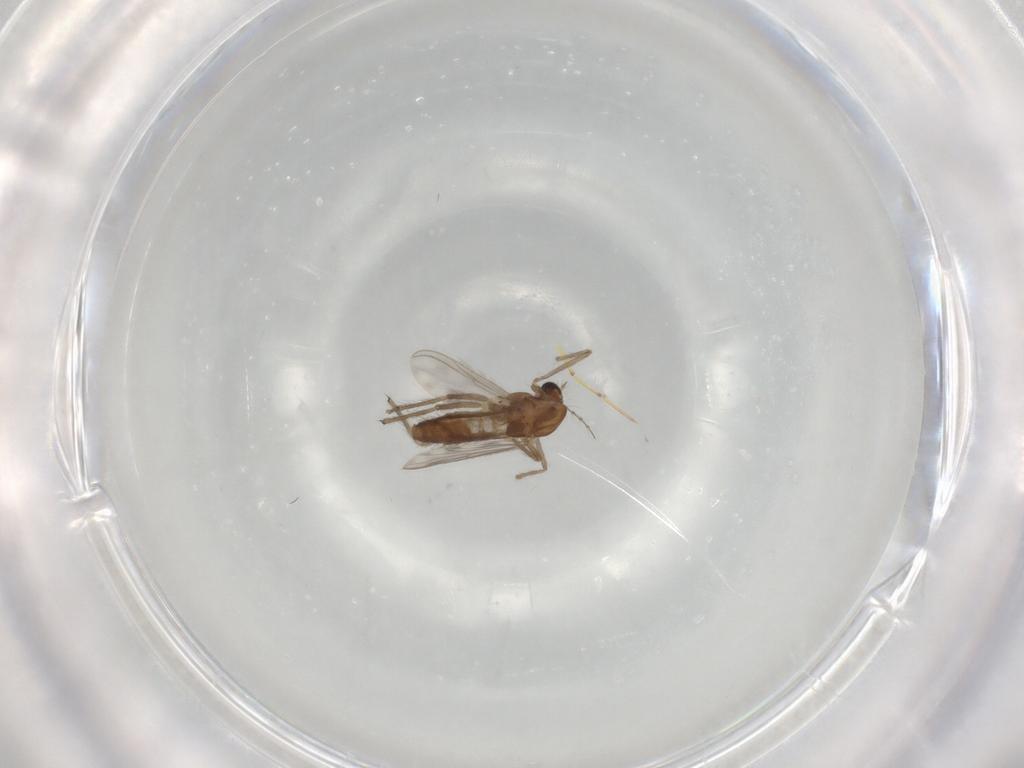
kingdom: Animalia
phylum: Arthropoda
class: Insecta
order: Diptera
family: Chironomidae
